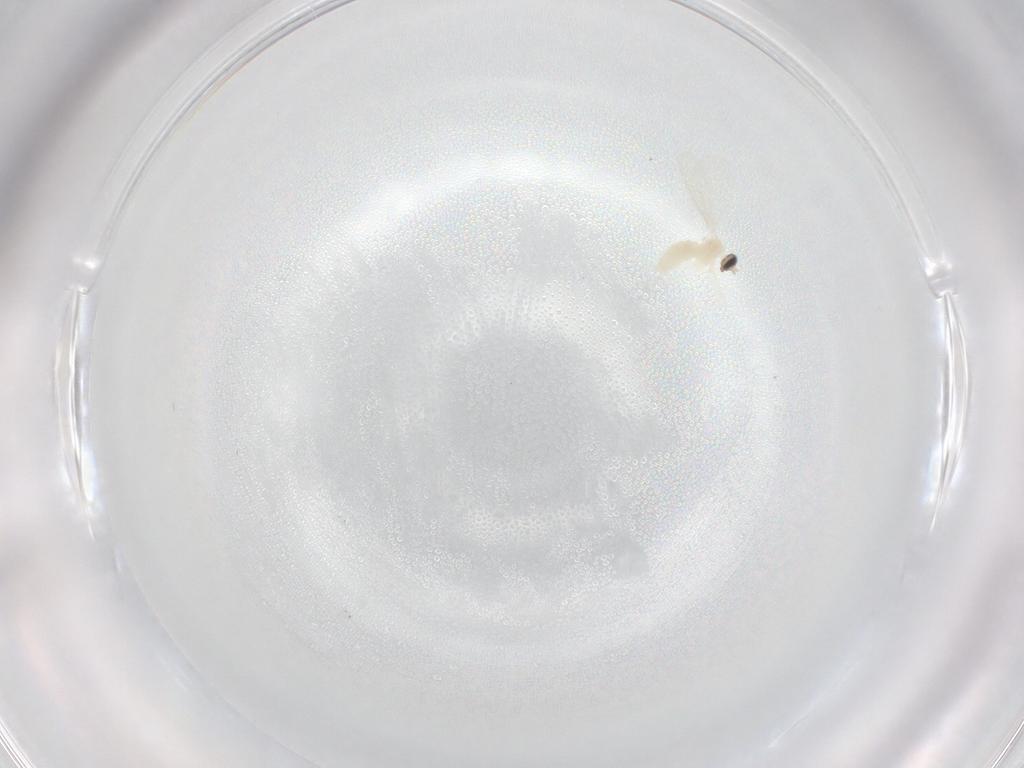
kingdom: Animalia
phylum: Arthropoda
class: Insecta
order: Diptera
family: Cecidomyiidae
